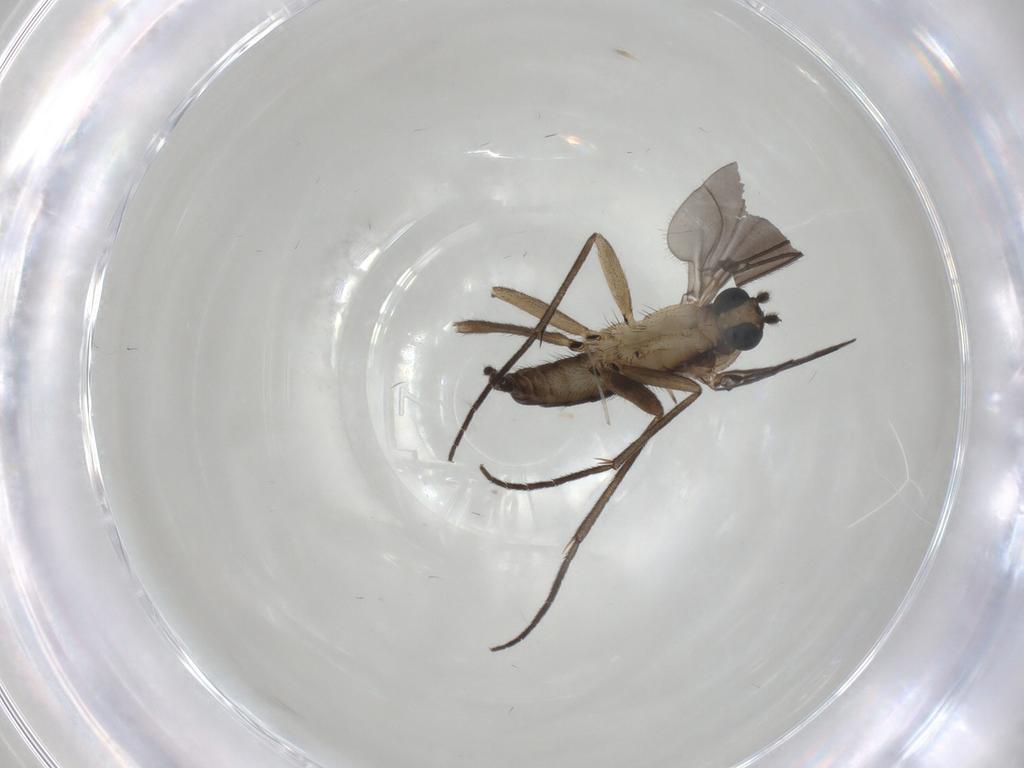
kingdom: Animalia
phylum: Arthropoda
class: Insecta
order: Diptera
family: Sciaridae
